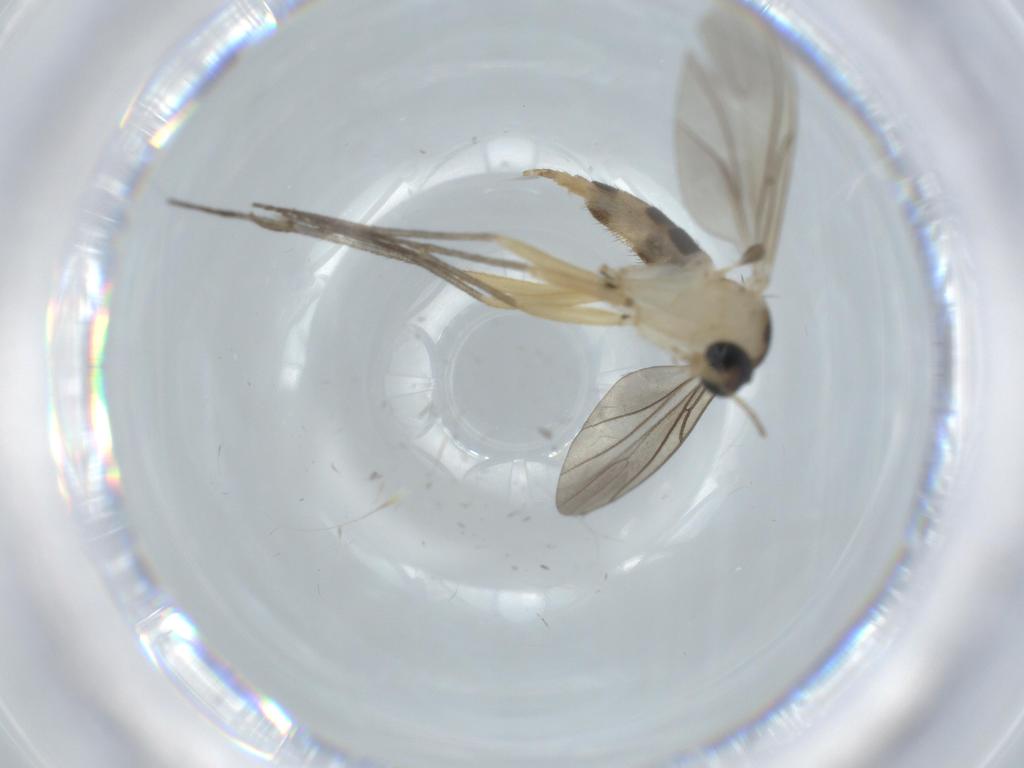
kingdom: Animalia
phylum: Arthropoda
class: Insecta
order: Diptera
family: Sciaridae
